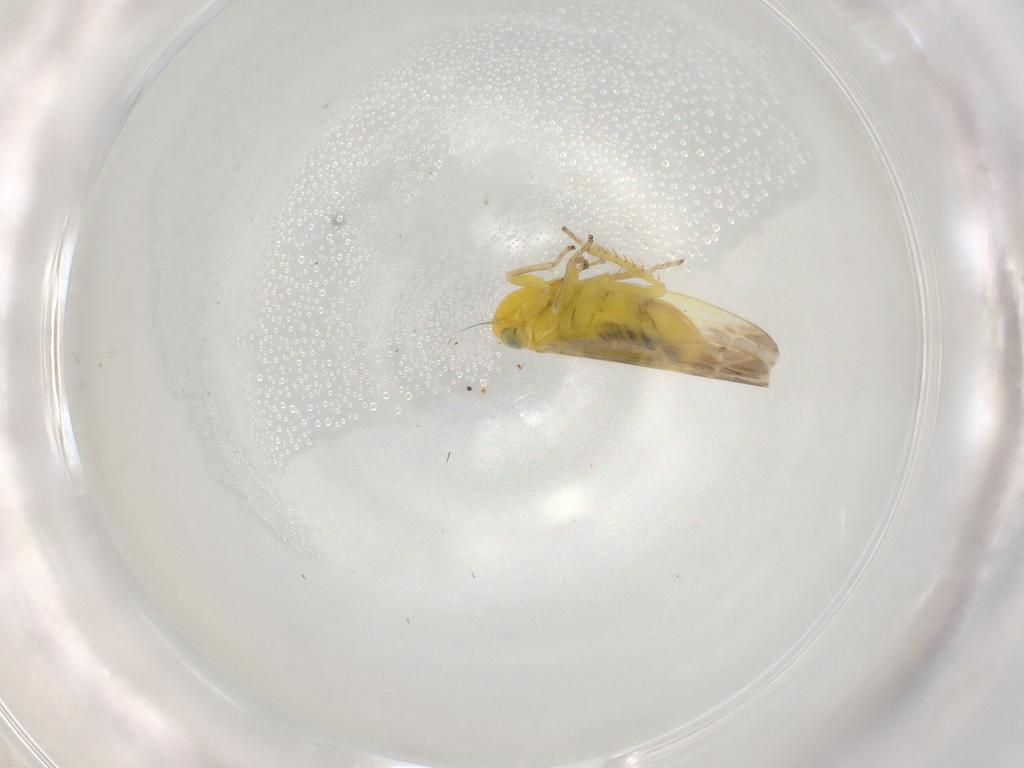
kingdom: Animalia
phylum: Arthropoda
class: Insecta
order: Hemiptera
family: Cicadellidae
